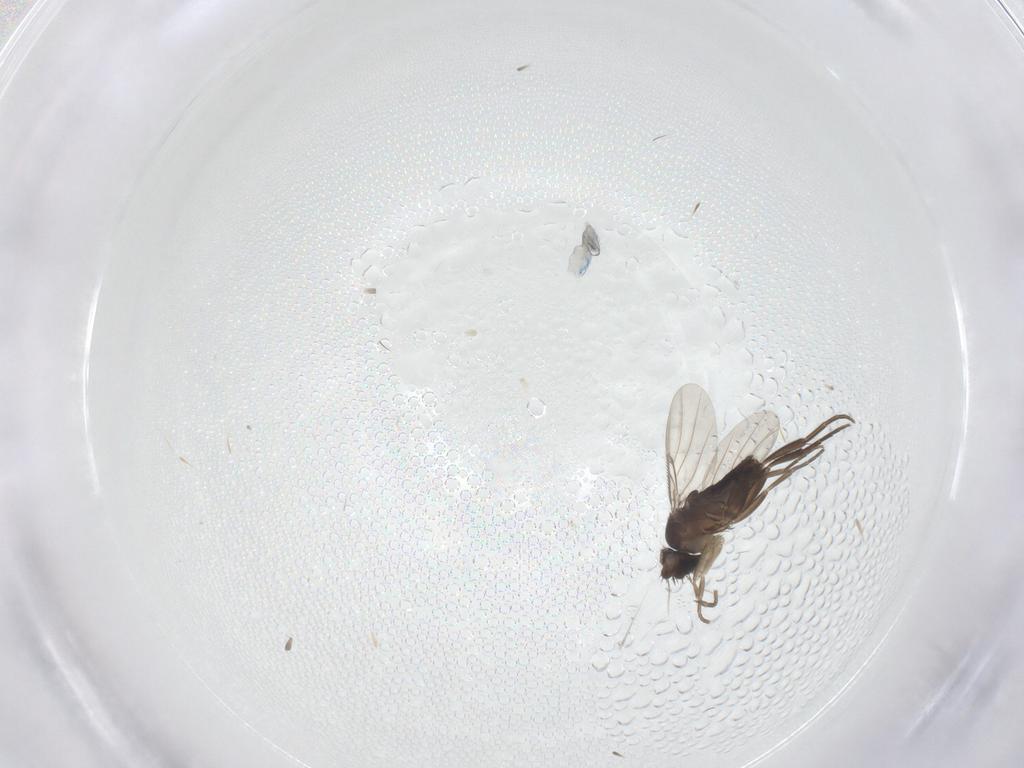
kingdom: Animalia
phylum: Arthropoda
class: Insecta
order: Diptera
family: Phoridae
